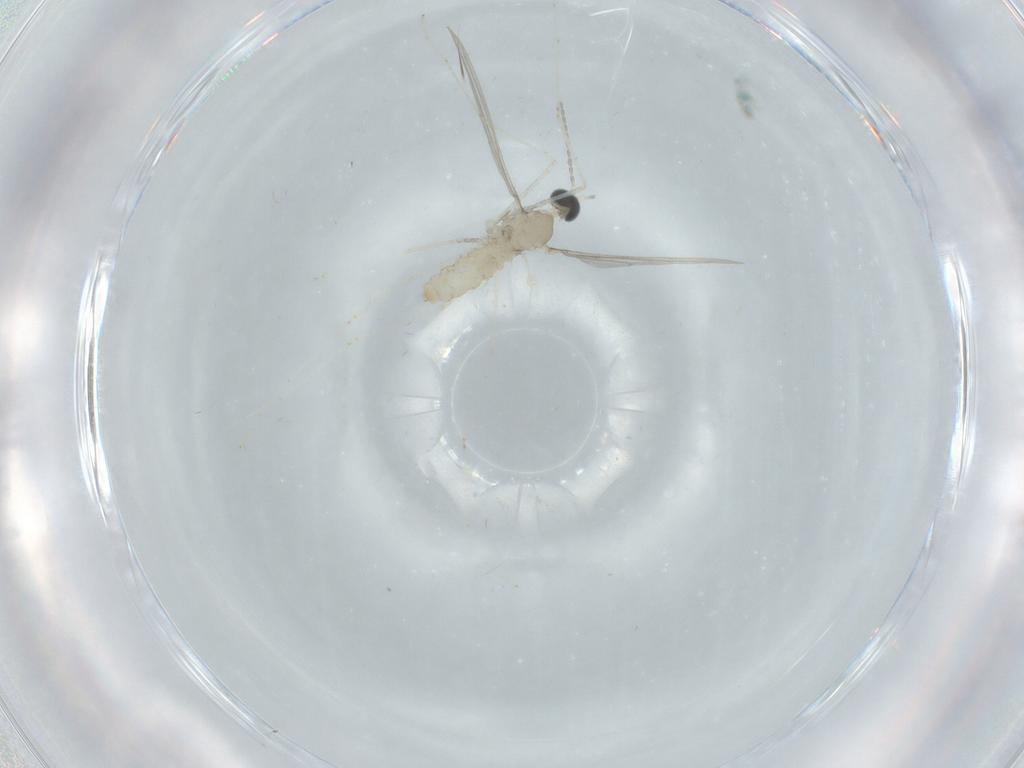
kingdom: Animalia
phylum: Arthropoda
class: Insecta
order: Diptera
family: Cecidomyiidae
